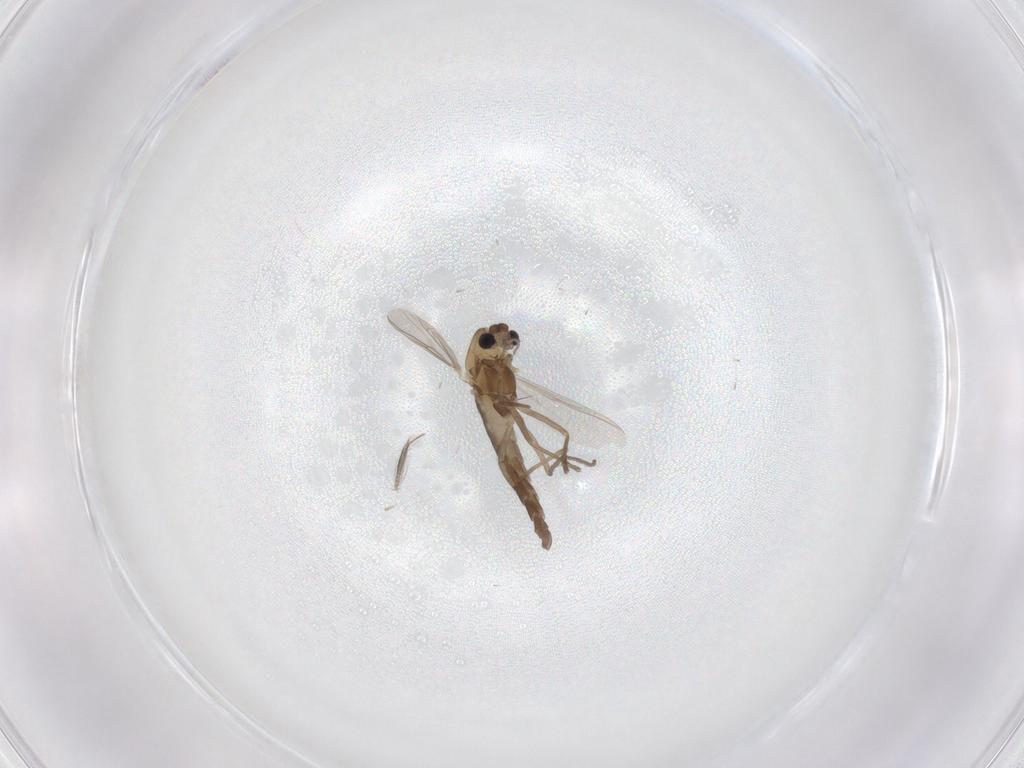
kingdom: Animalia
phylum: Arthropoda
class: Insecta
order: Diptera
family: Chironomidae
